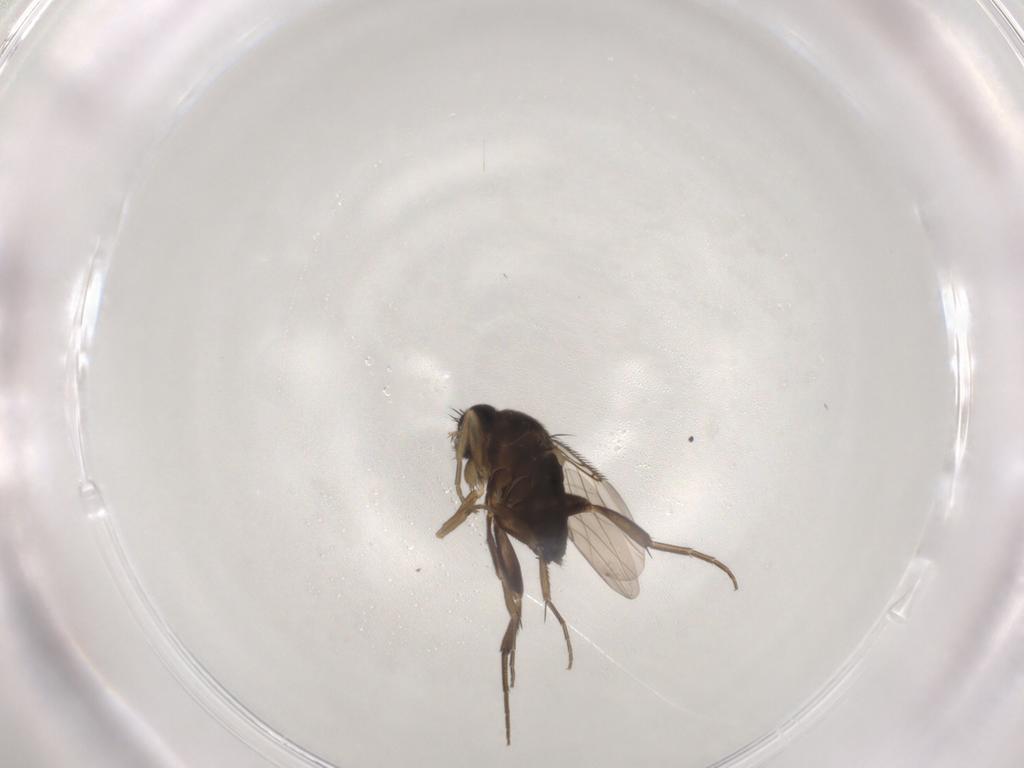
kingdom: Animalia
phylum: Arthropoda
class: Insecta
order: Diptera
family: Phoridae
